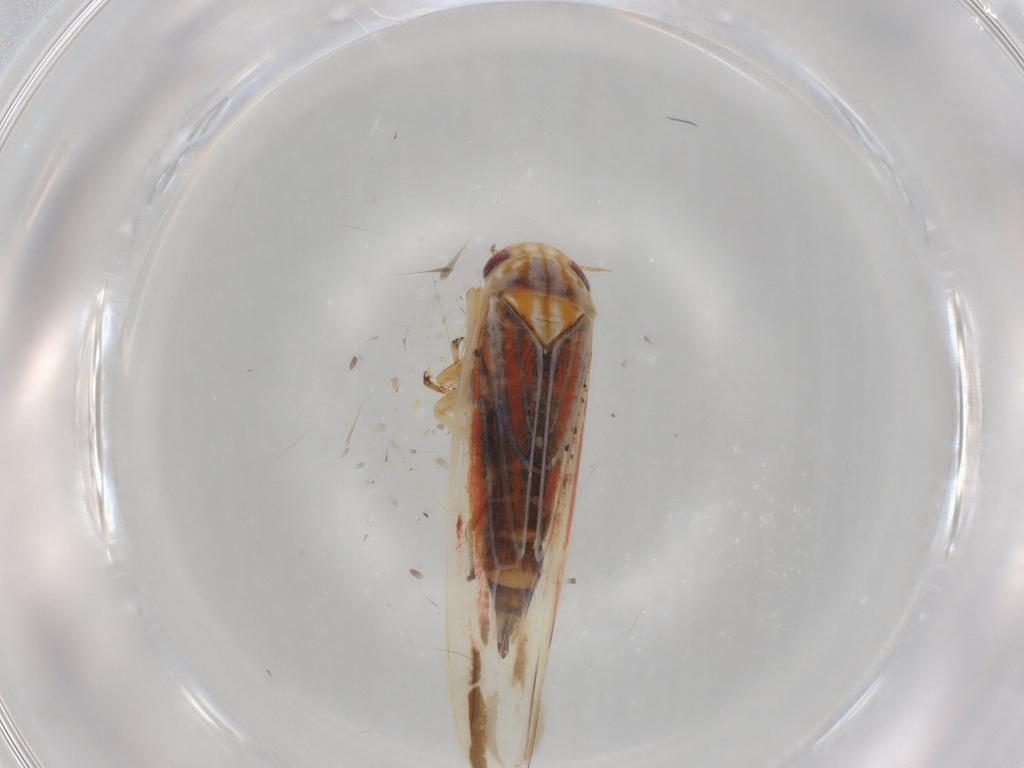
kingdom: Animalia
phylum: Arthropoda
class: Insecta
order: Hemiptera
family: Cicadellidae
